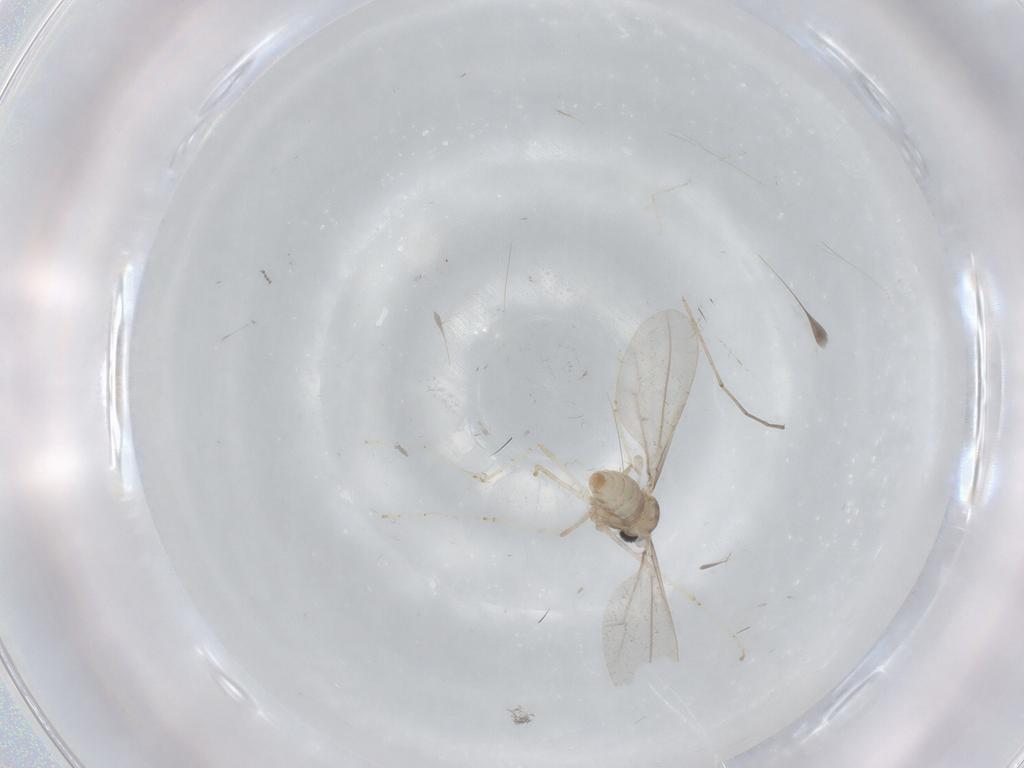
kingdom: Animalia
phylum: Arthropoda
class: Insecta
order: Diptera
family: Cecidomyiidae
